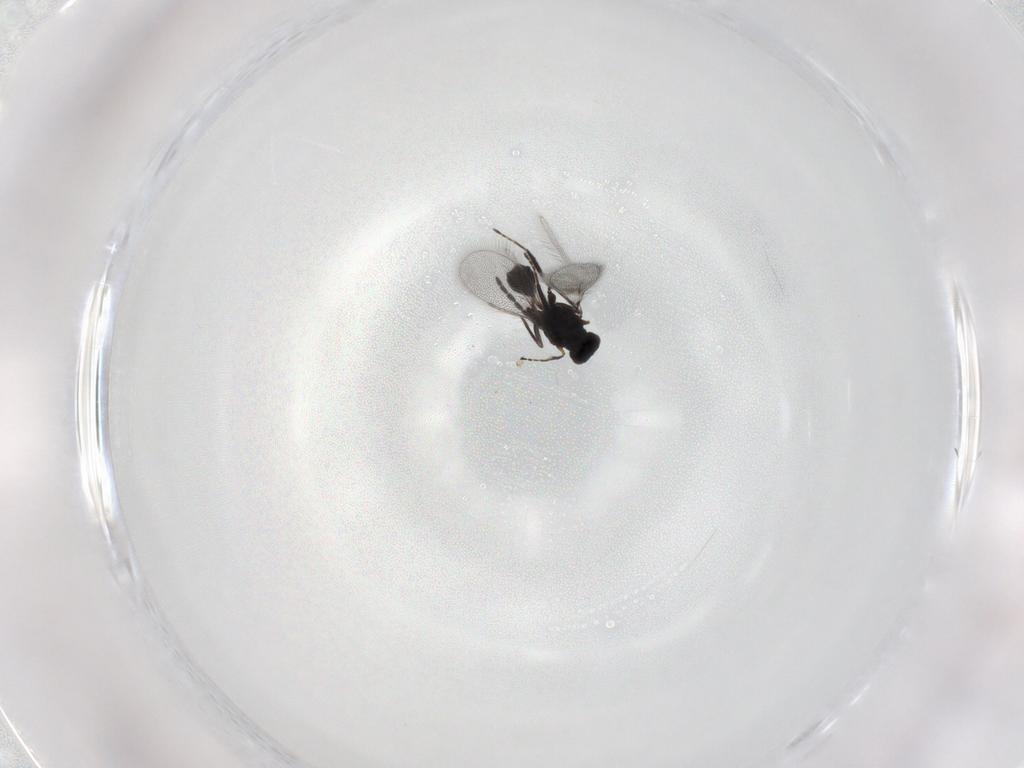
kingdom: Animalia
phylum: Arthropoda
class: Insecta
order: Hymenoptera
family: Mymaridae
